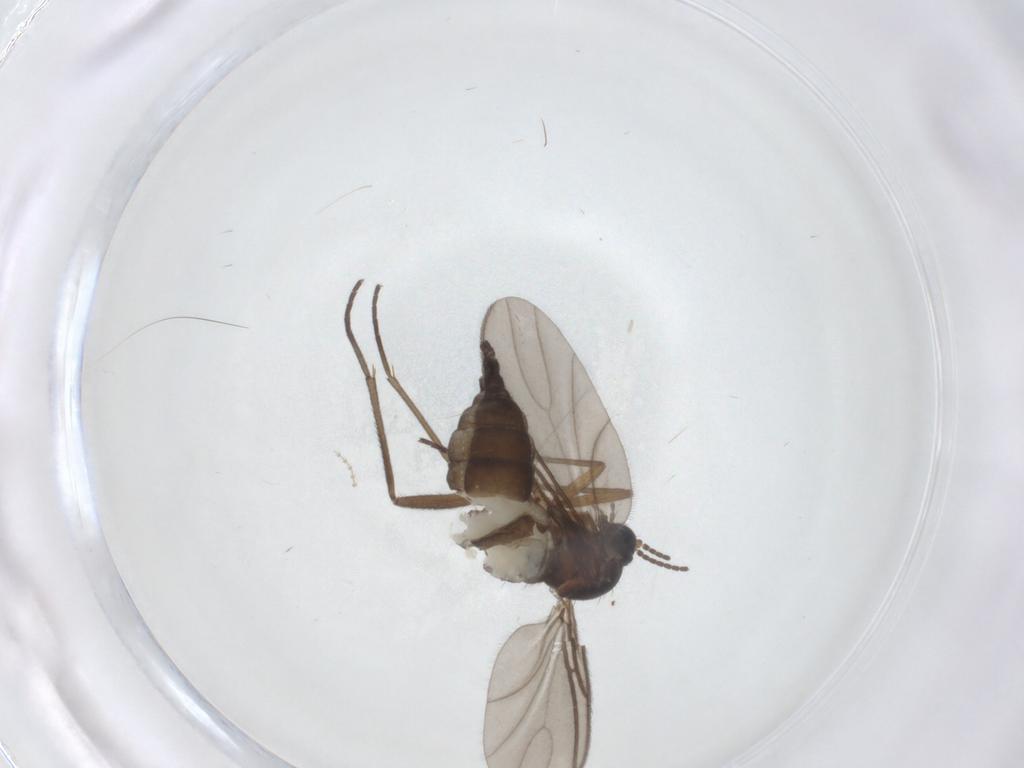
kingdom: Animalia
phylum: Arthropoda
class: Insecta
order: Diptera
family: Sciaridae
